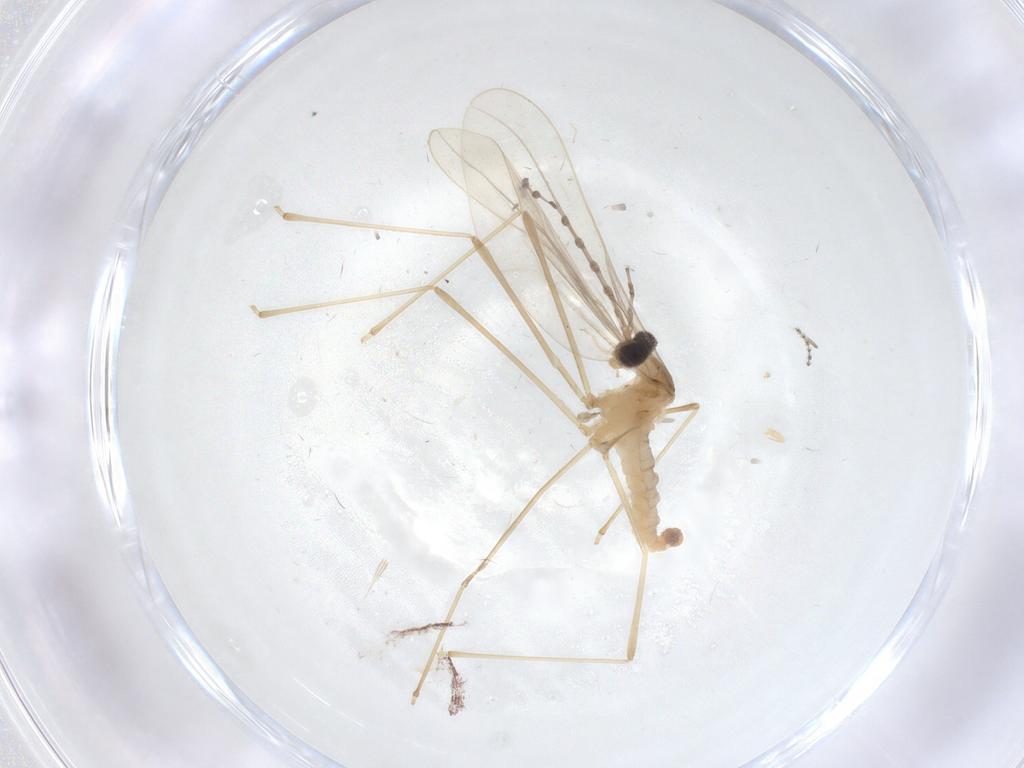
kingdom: Animalia
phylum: Arthropoda
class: Insecta
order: Diptera
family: Cecidomyiidae
